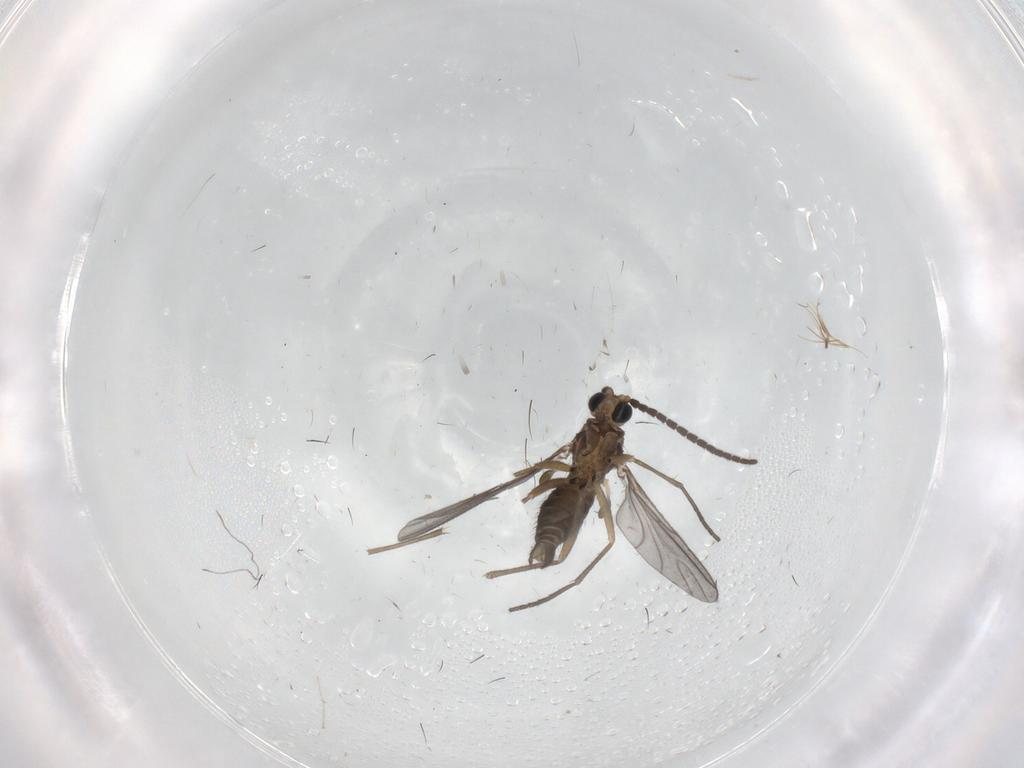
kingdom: Animalia
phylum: Arthropoda
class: Insecta
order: Diptera
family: Sciaridae
